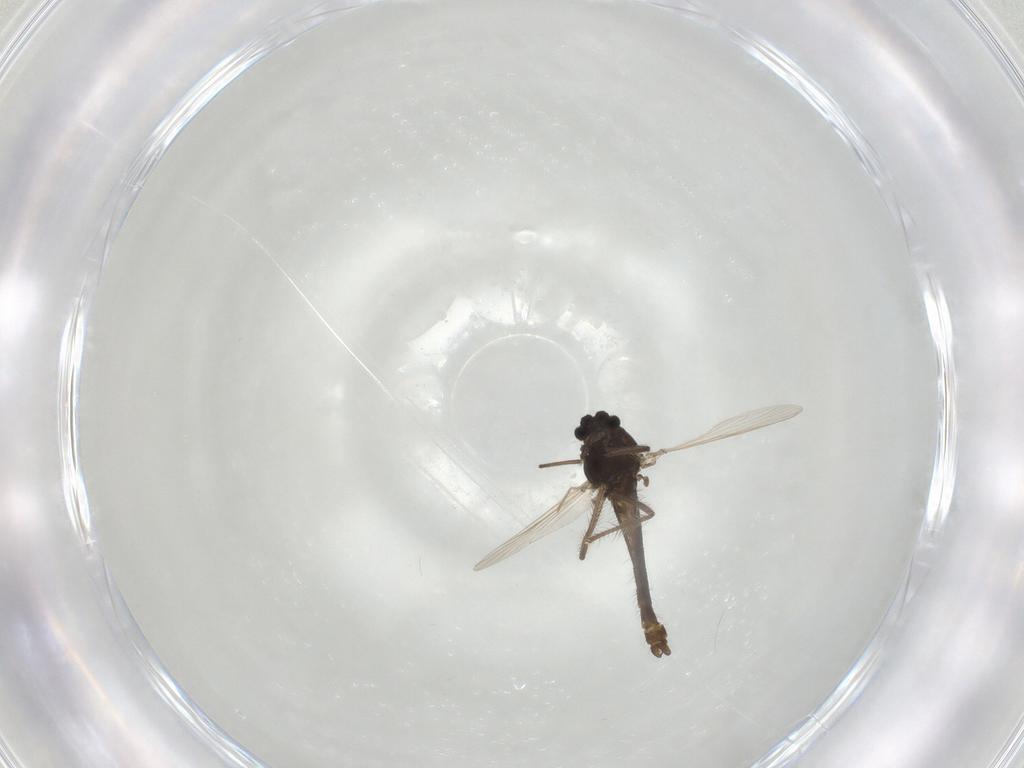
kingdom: Animalia
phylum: Arthropoda
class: Insecta
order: Diptera
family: Chironomidae
